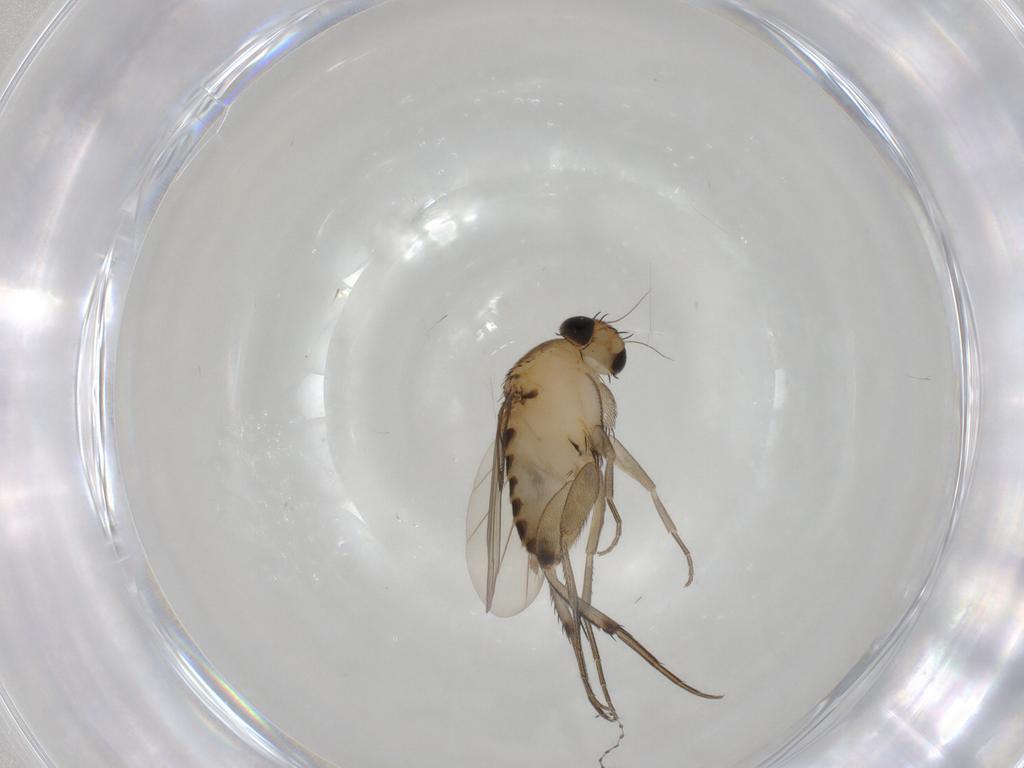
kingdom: Animalia
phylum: Arthropoda
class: Insecta
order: Diptera
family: Phoridae
